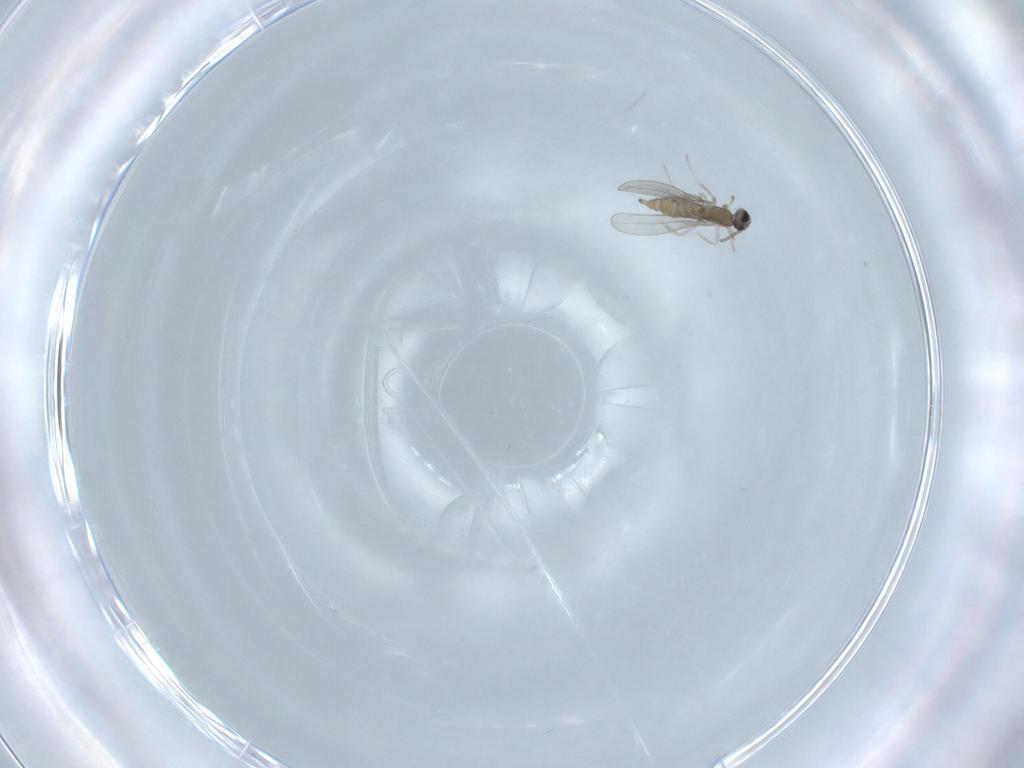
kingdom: Animalia
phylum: Arthropoda
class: Insecta
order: Diptera
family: Cecidomyiidae
